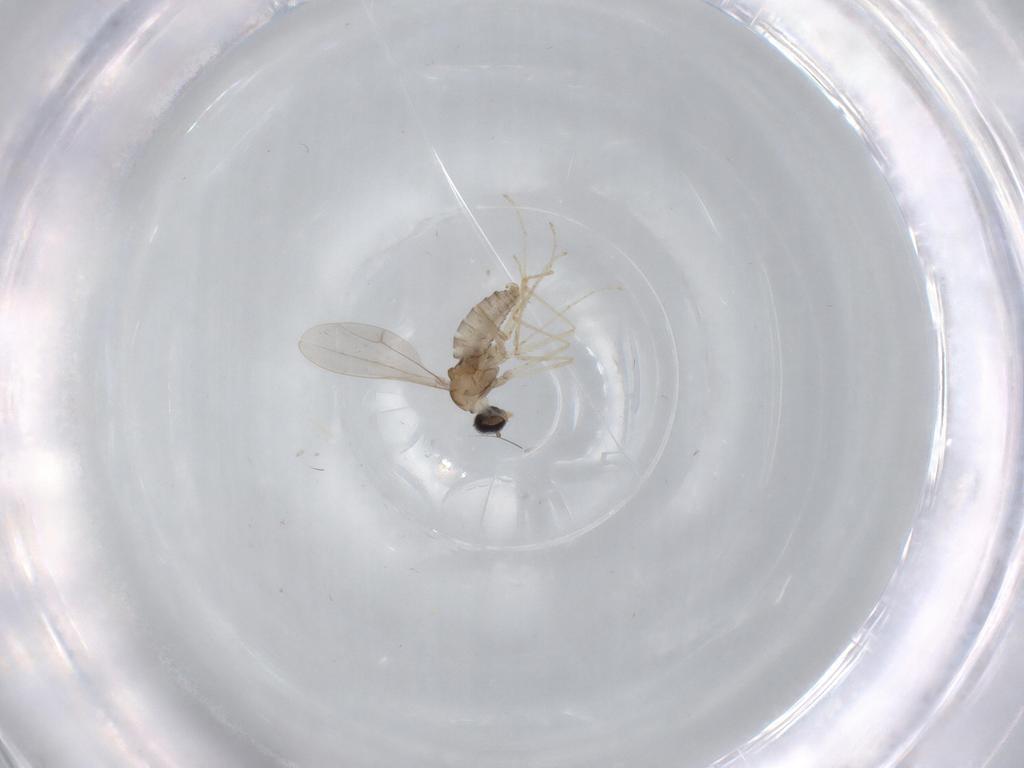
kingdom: Animalia
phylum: Arthropoda
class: Insecta
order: Diptera
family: Cecidomyiidae
